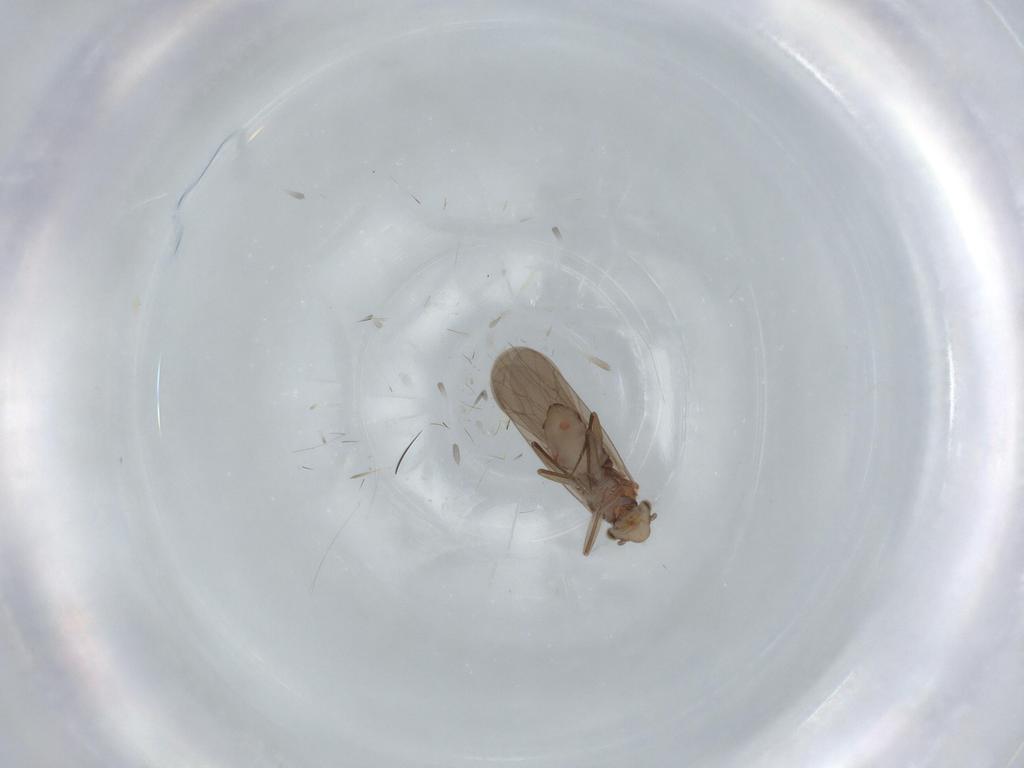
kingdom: Animalia
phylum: Arthropoda
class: Insecta
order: Psocodea
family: Lepidopsocidae
